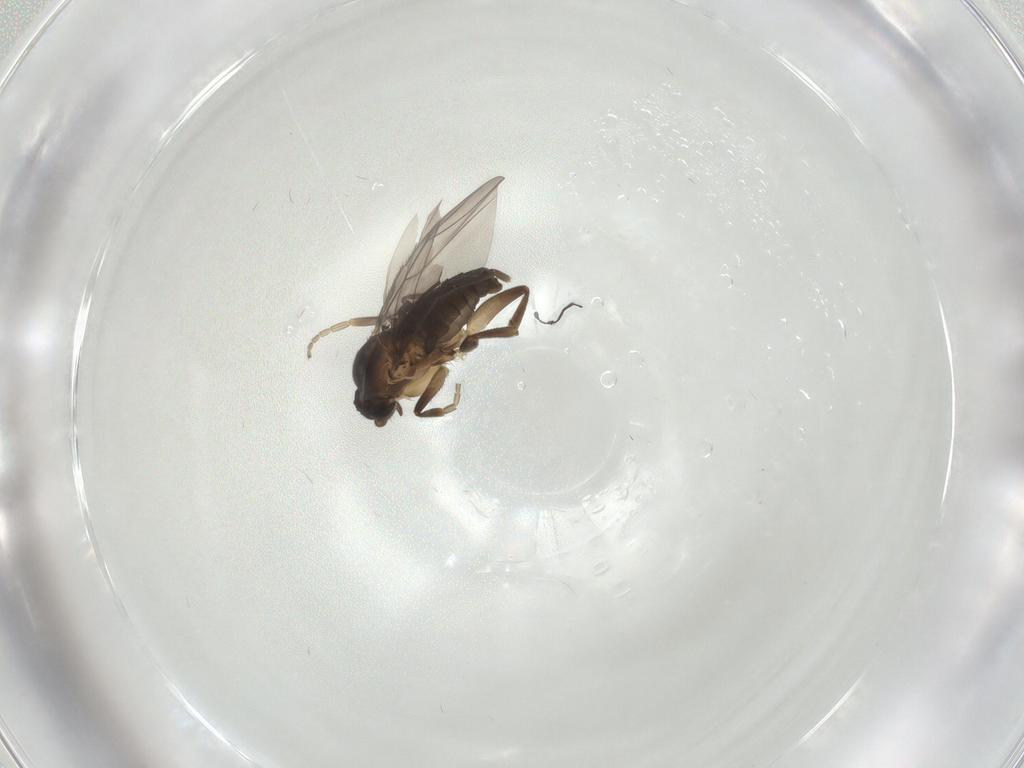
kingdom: Animalia
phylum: Arthropoda
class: Insecta
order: Diptera
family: Phoridae
